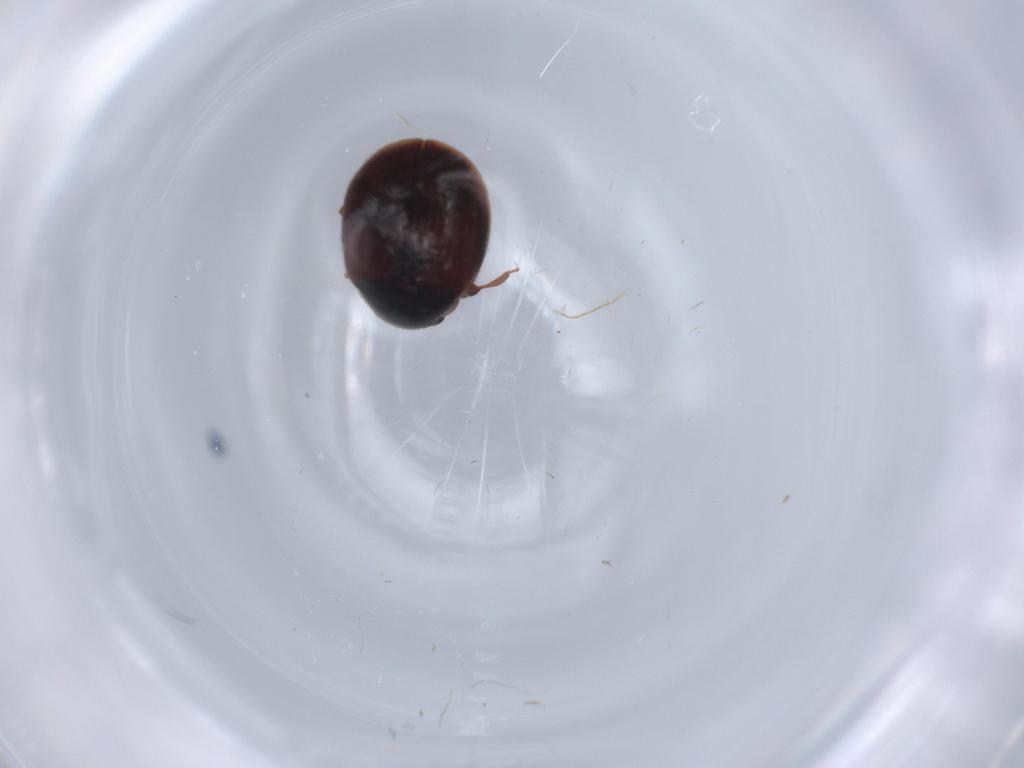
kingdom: Animalia
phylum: Arthropoda
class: Insecta
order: Coleoptera
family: Sphindidae
